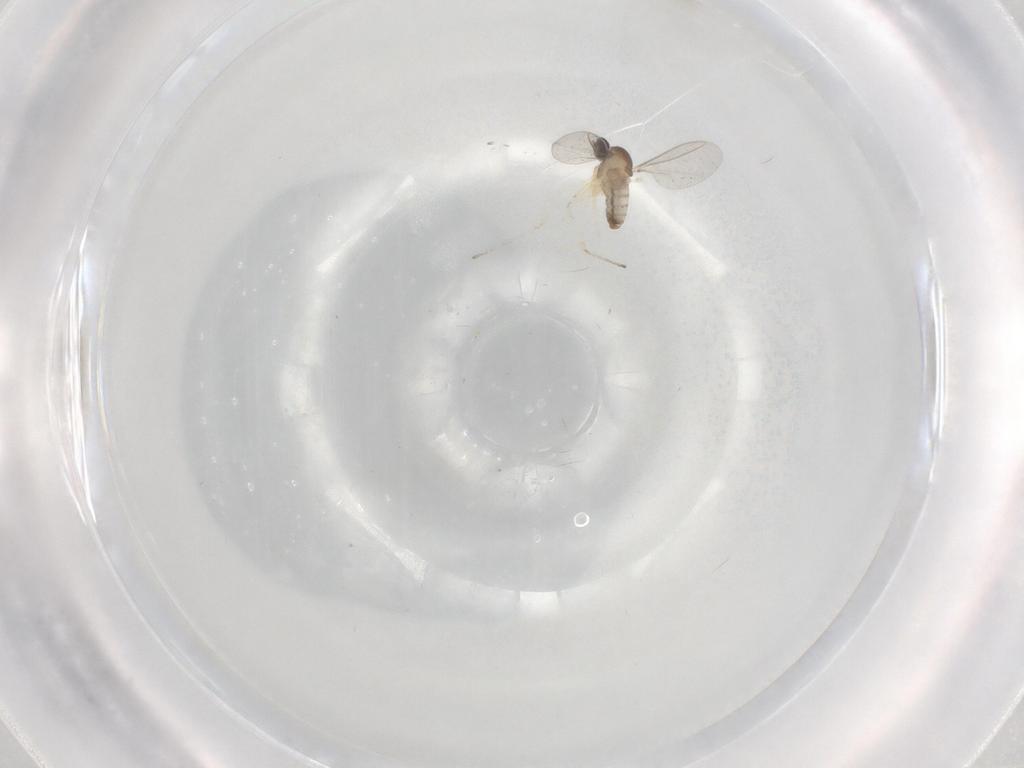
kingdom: Animalia
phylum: Arthropoda
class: Insecta
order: Diptera
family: Cecidomyiidae
